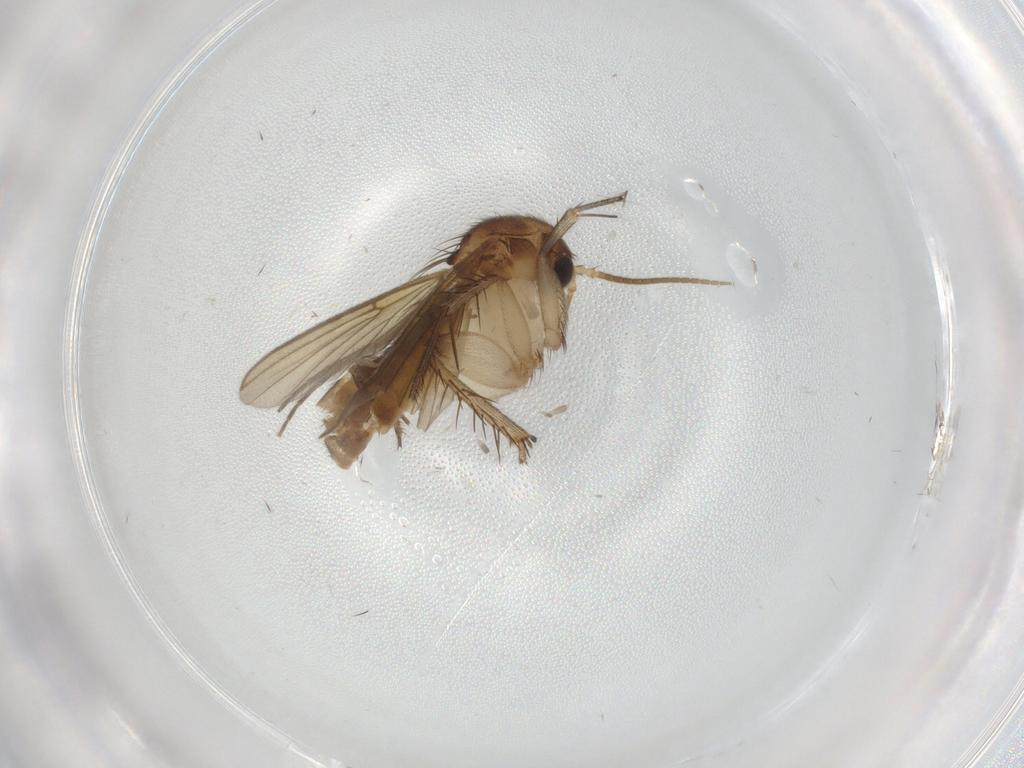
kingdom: Animalia
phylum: Arthropoda
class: Insecta
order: Diptera
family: Mycetophilidae
